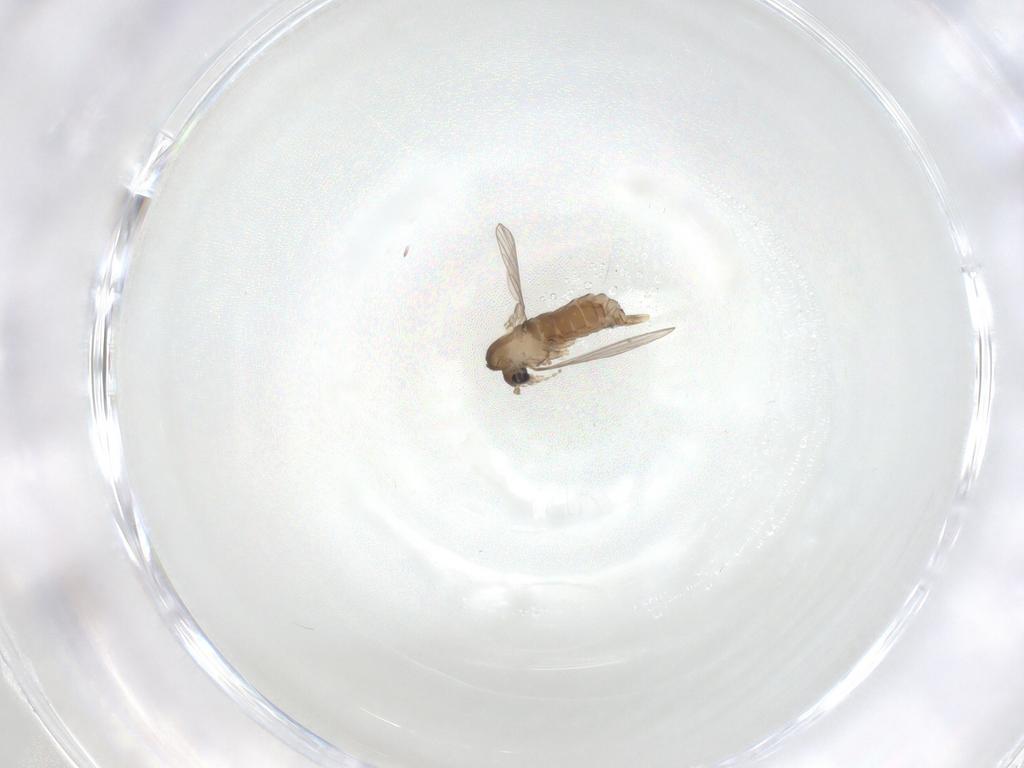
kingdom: Animalia
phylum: Arthropoda
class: Insecta
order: Diptera
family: Psychodidae
